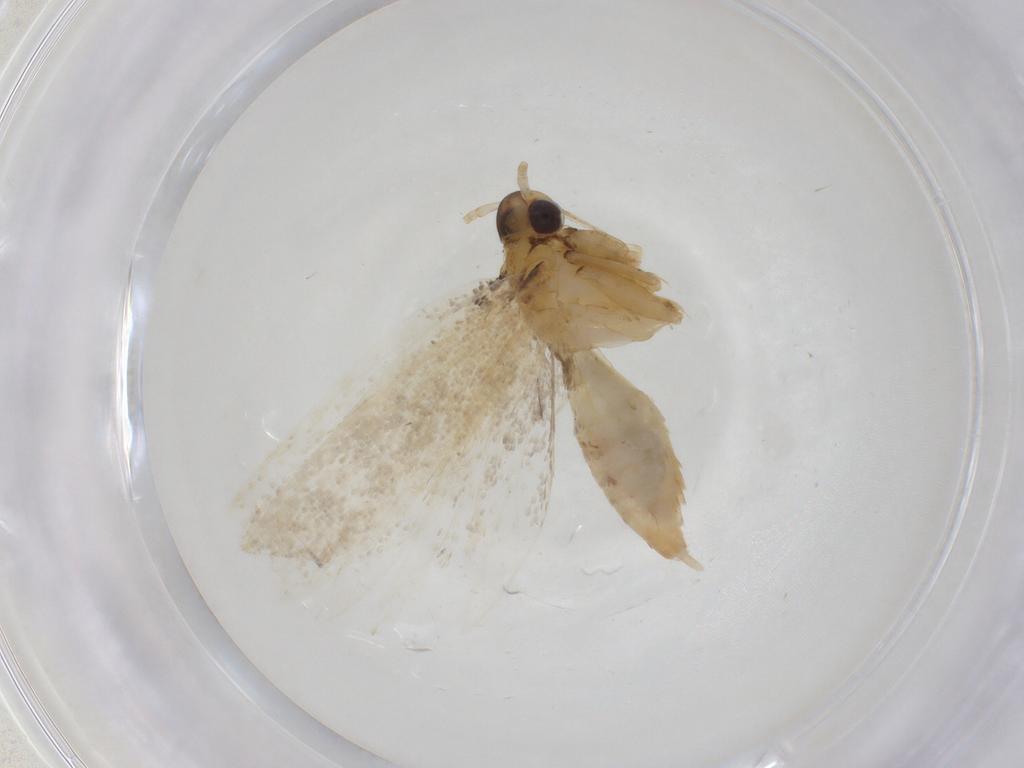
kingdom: Animalia
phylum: Arthropoda
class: Insecta
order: Lepidoptera
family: Lecithoceridae
